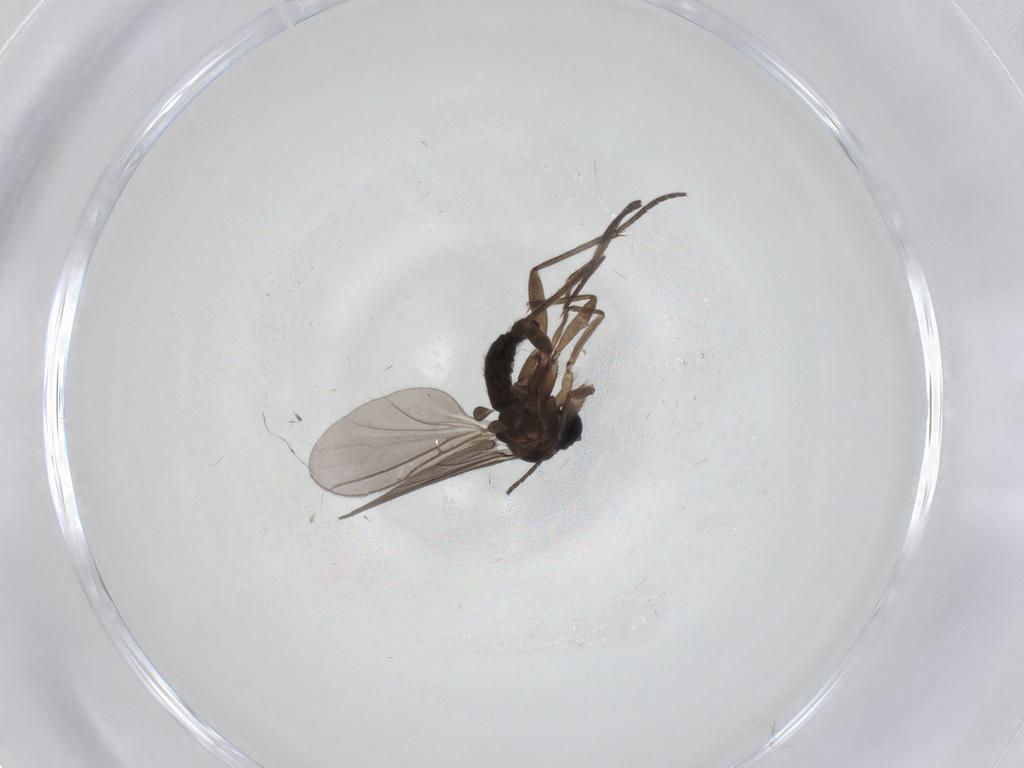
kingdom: Animalia
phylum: Arthropoda
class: Insecta
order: Diptera
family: Sciaridae
